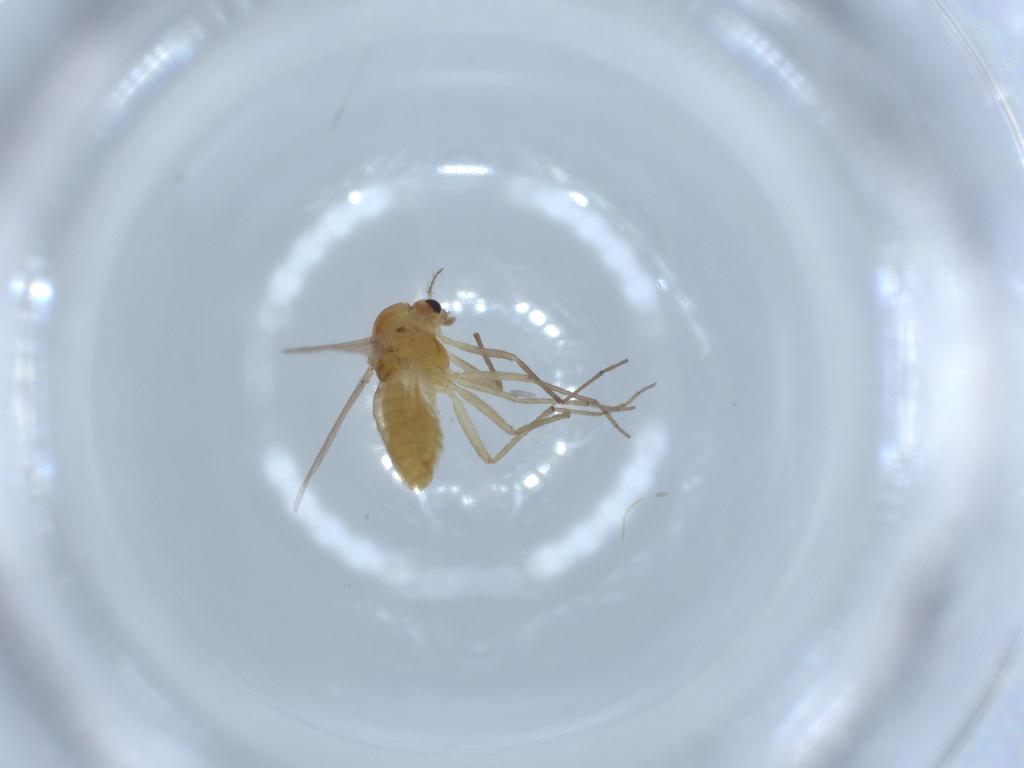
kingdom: Animalia
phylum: Arthropoda
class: Insecta
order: Diptera
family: Chironomidae
